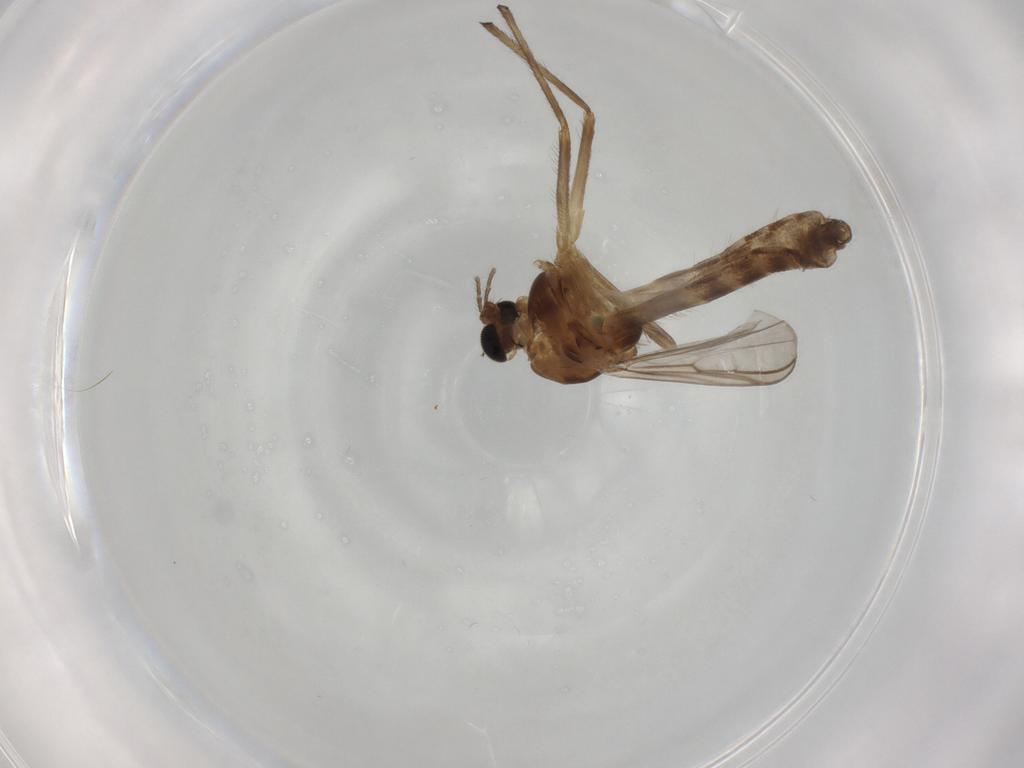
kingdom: Animalia
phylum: Arthropoda
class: Insecta
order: Diptera
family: Chironomidae
